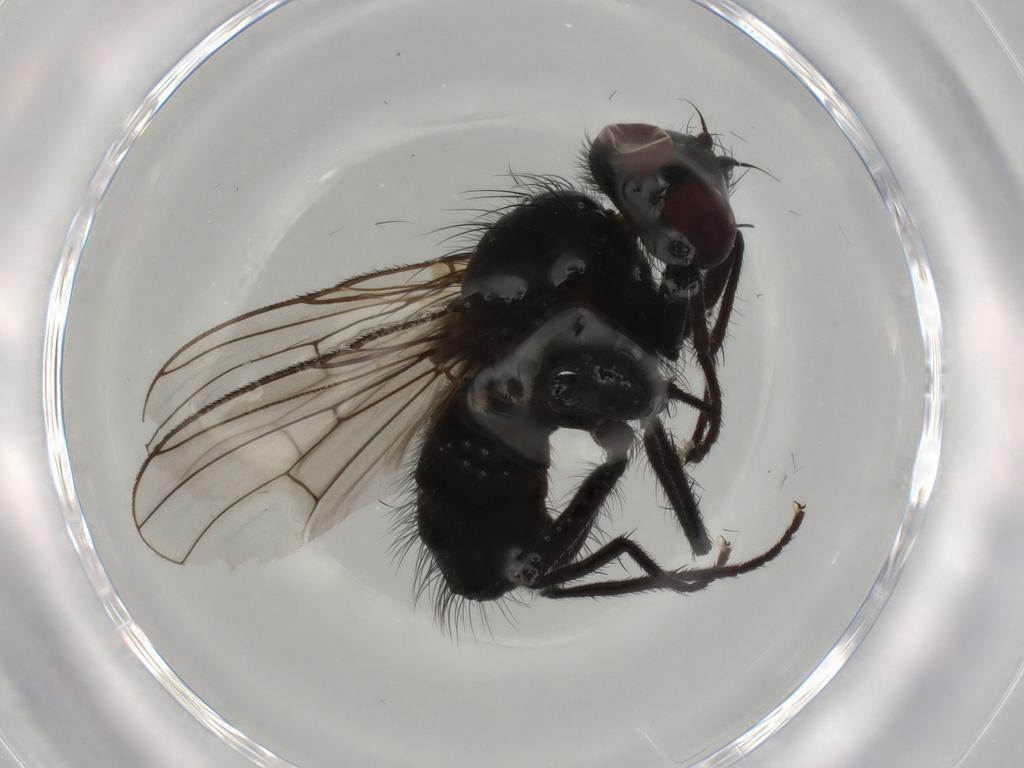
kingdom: Animalia
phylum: Arthropoda
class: Insecta
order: Diptera
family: Muscidae
